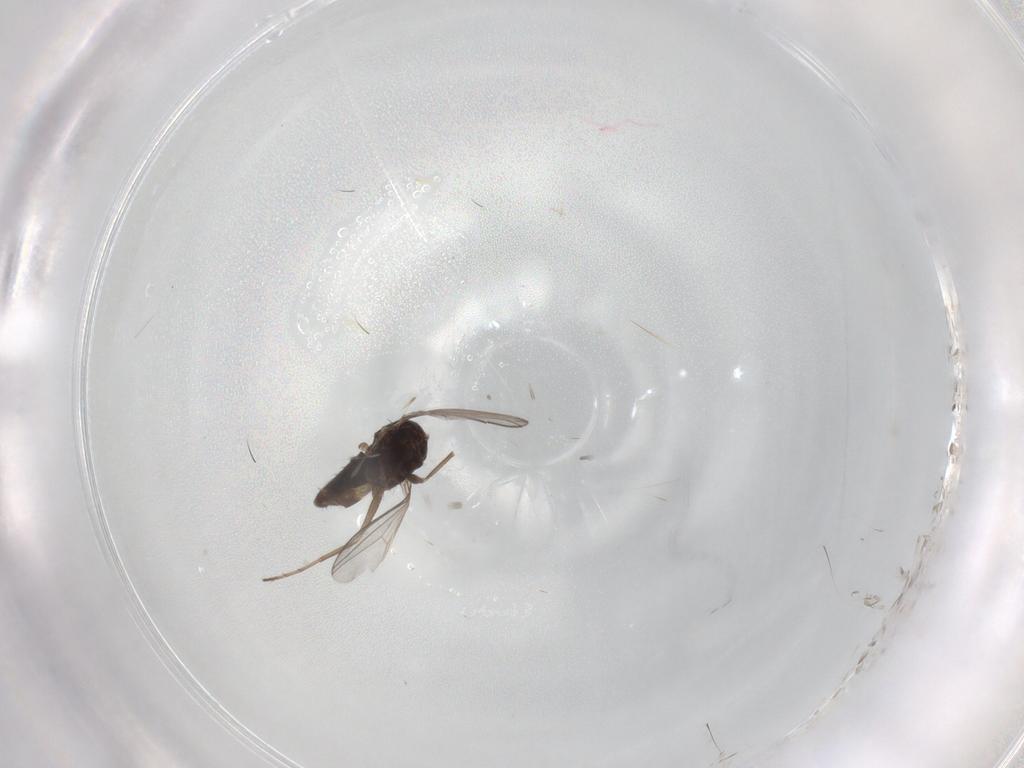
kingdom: Animalia
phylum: Arthropoda
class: Insecta
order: Diptera
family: Dolichopodidae
